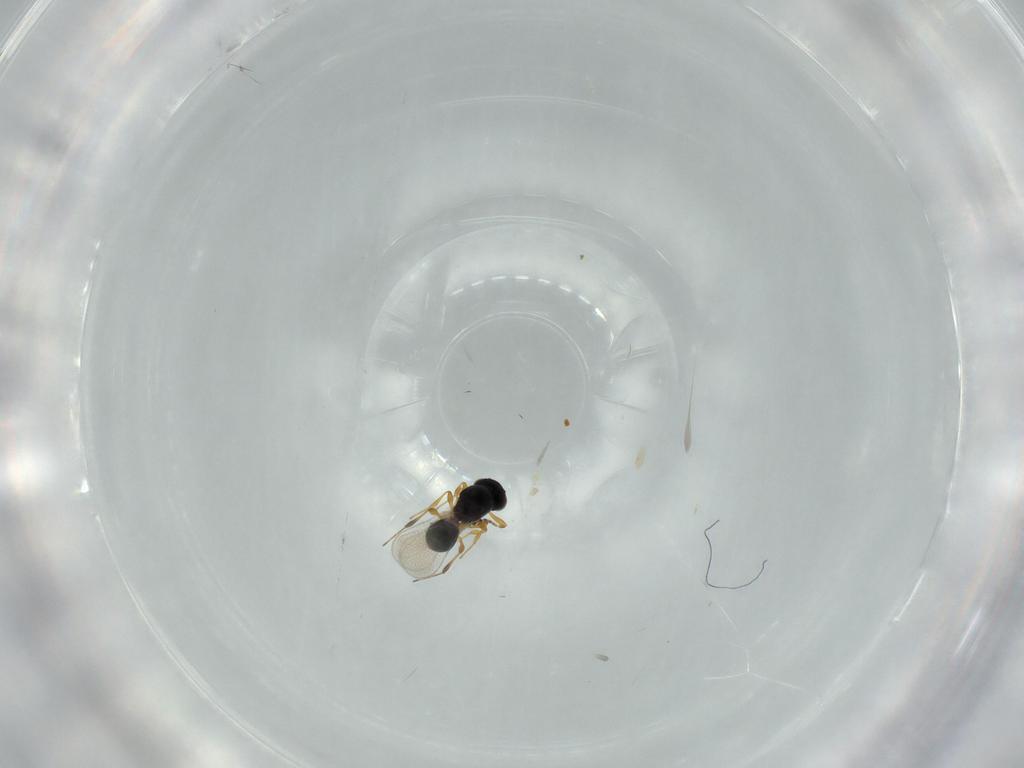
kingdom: Animalia
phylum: Arthropoda
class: Insecta
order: Hymenoptera
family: Platygastridae
